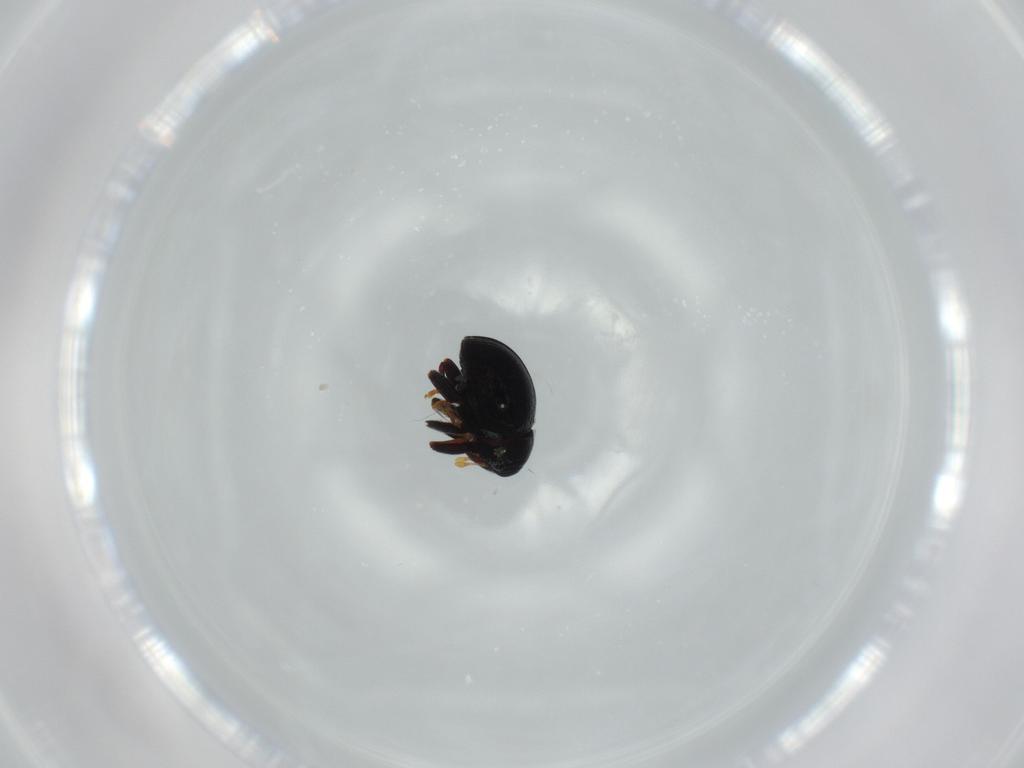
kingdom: Animalia
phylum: Arthropoda
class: Insecta
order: Coleoptera
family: Scraptiidae
